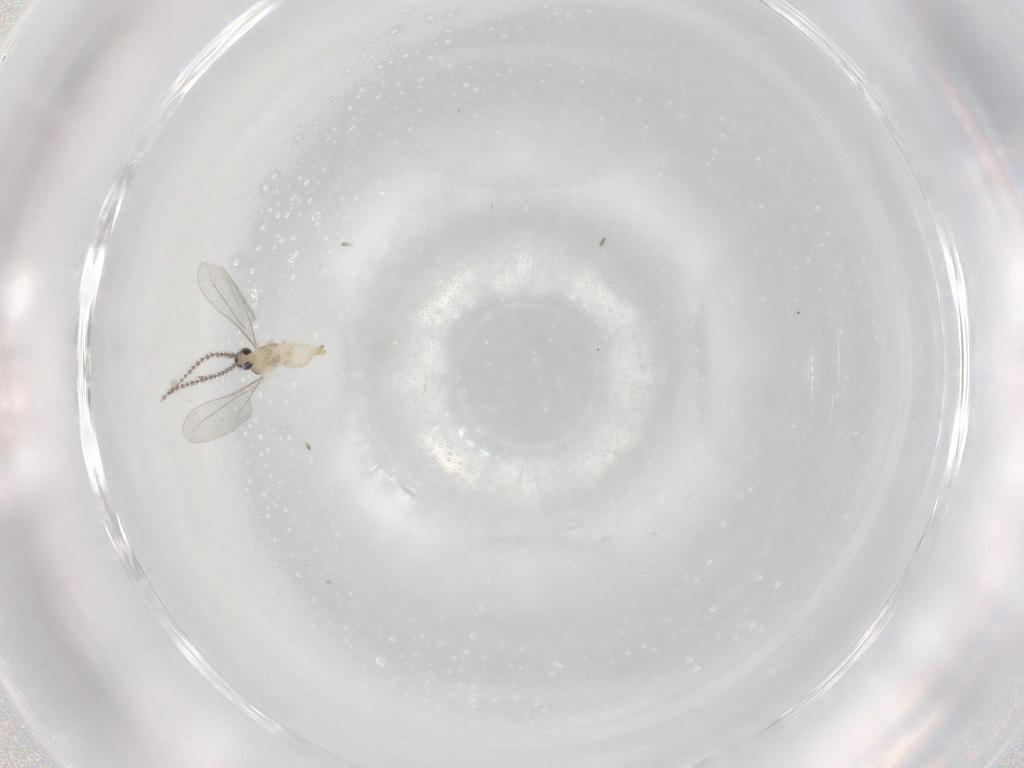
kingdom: Animalia
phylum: Arthropoda
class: Insecta
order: Diptera
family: Cecidomyiidae
